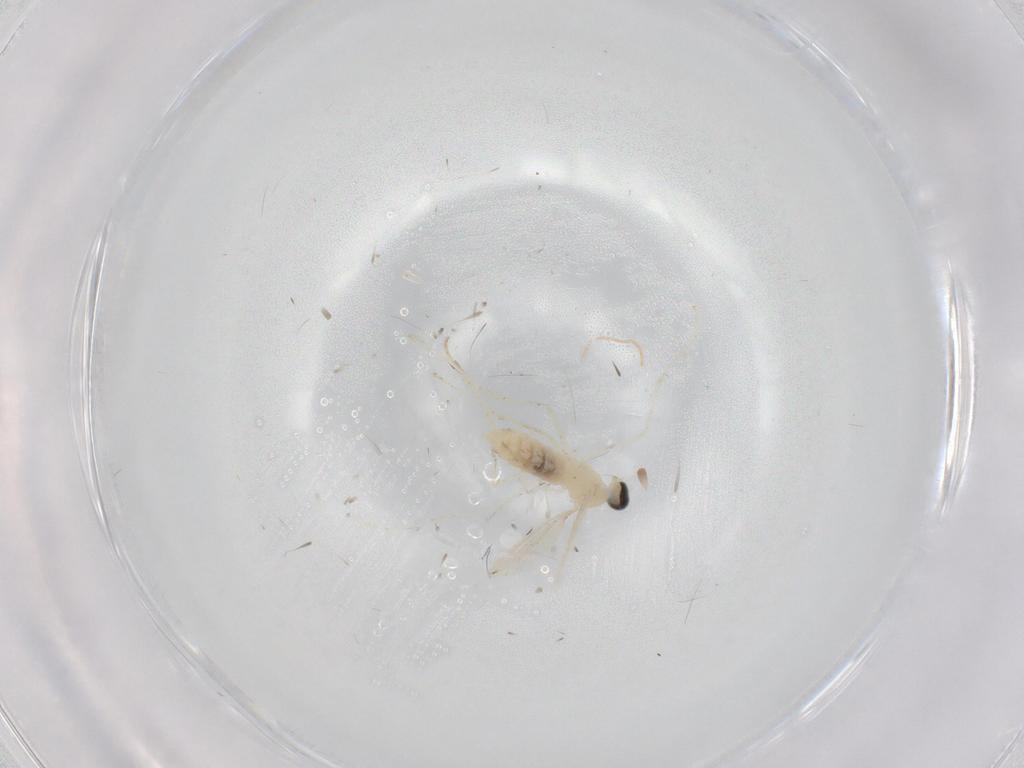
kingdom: Animalia
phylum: Arthropoda
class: Insecta
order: Diptera
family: Cecidomyiidae
